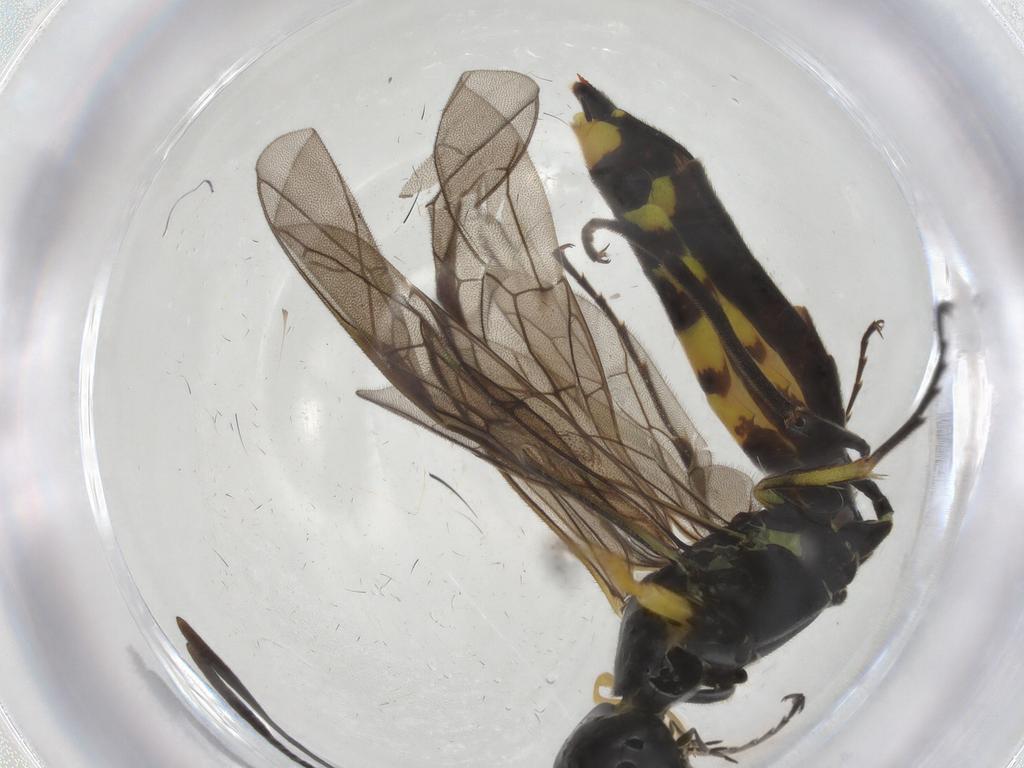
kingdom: Animalia
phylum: Arthropoda
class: Insecta
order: Hymenoptera
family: Cephidae
